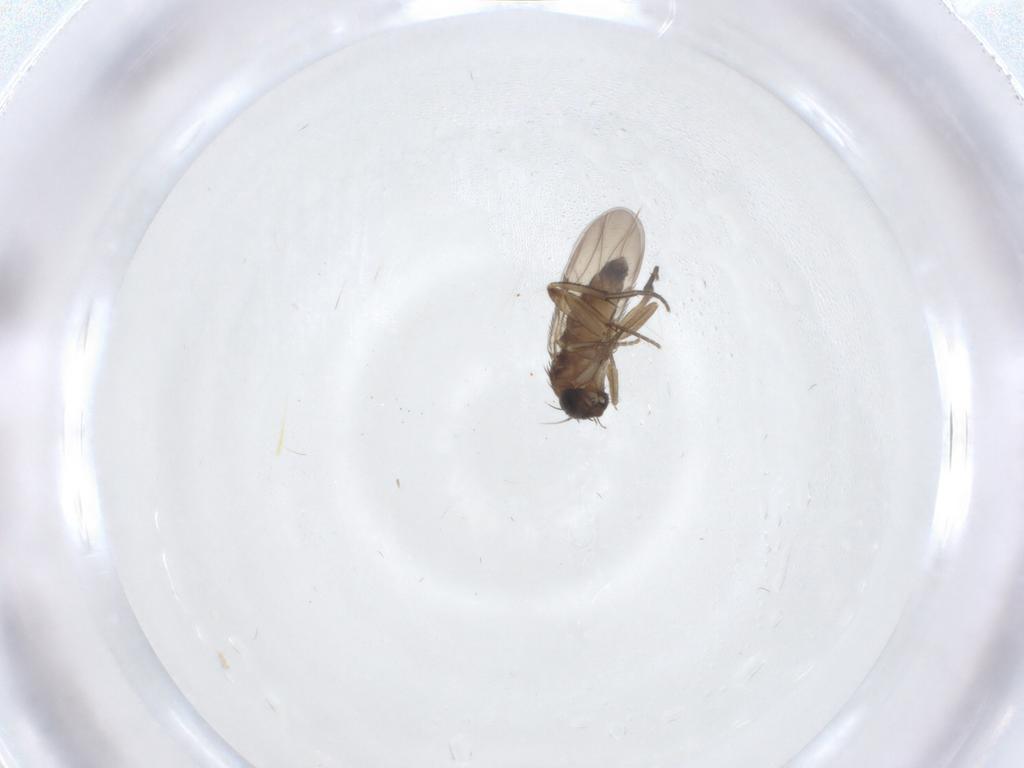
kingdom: Animalia
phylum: Arthropoda
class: Insecta
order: Diptera
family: Phoridae
